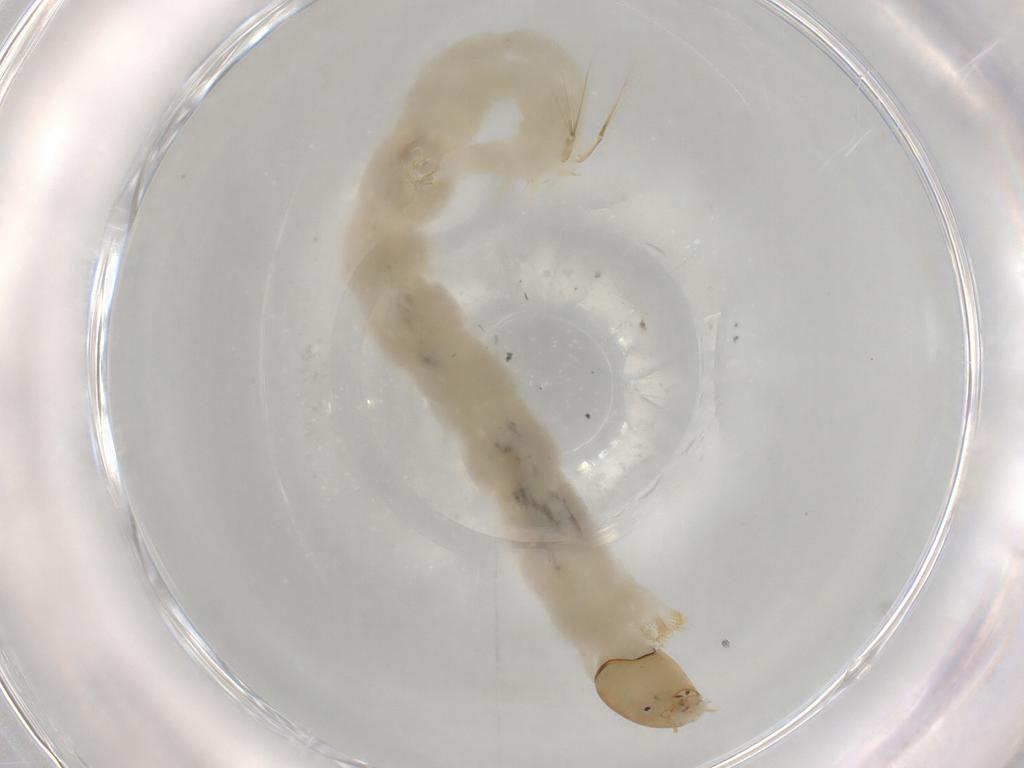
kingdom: Animalia
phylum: Arthropoda
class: Insecta
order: Diptera
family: Chironomidae
